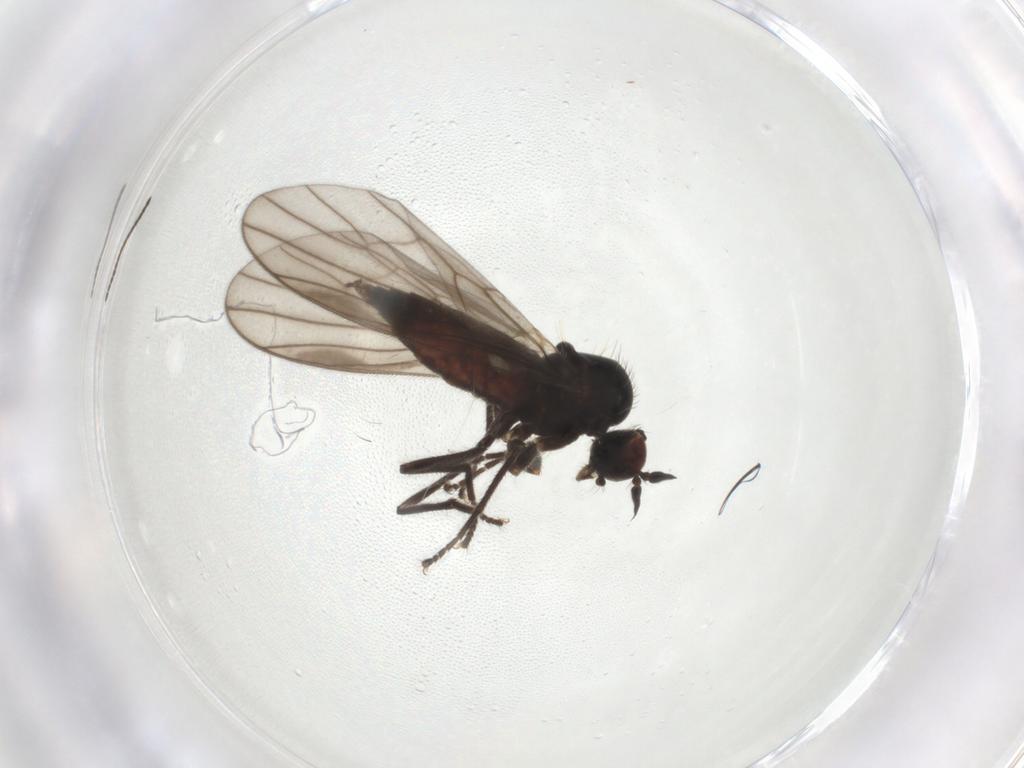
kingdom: Animalia
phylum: Arthropoda
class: Insecta
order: Diptera
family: Hybotidae
